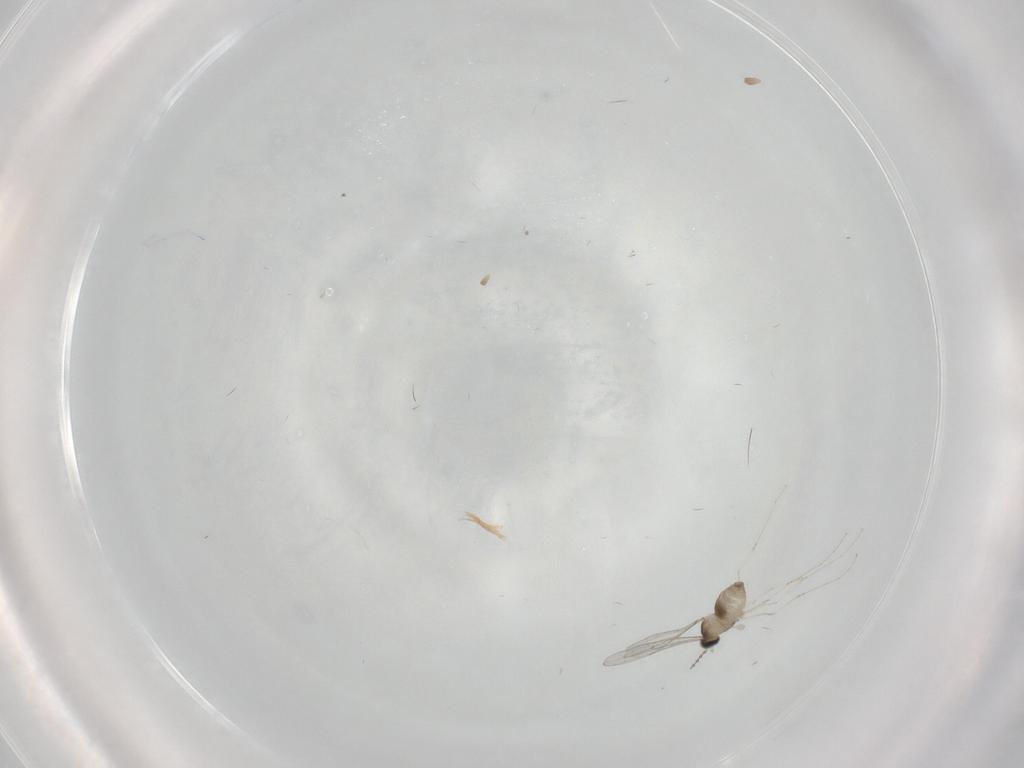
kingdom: Animalia
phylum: Arthropoda
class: Insecta
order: Diptera
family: Cecidomyiidae
